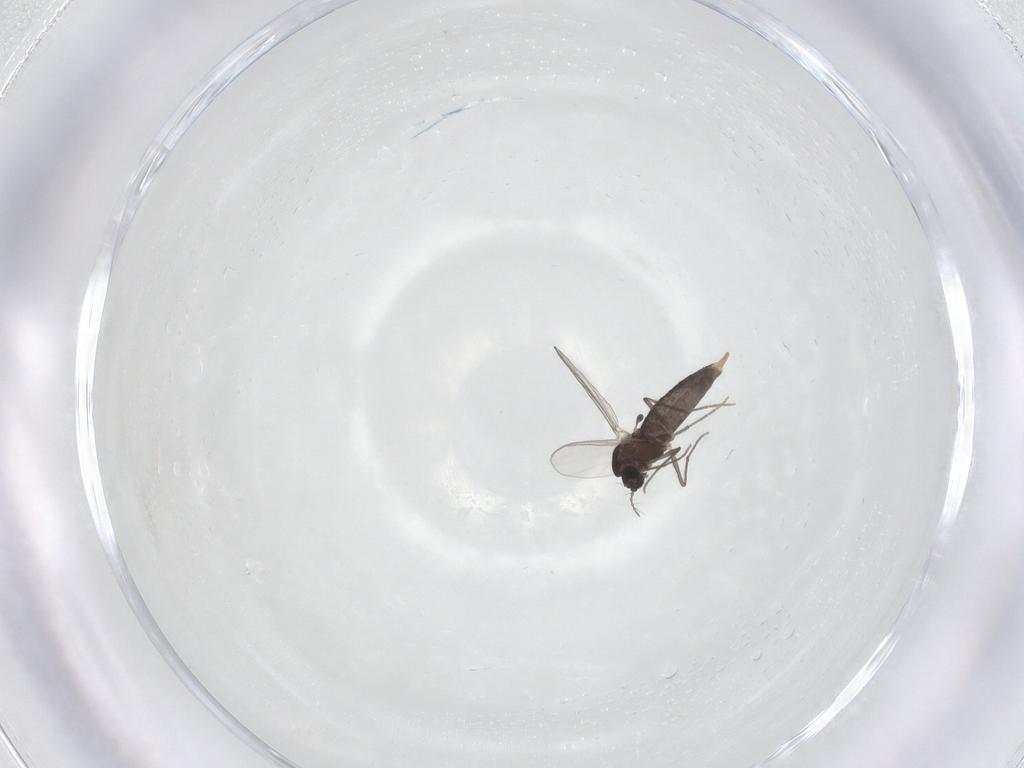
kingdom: Animalia
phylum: Arthropoda
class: Insecta
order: Diptera
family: Chironomidae
